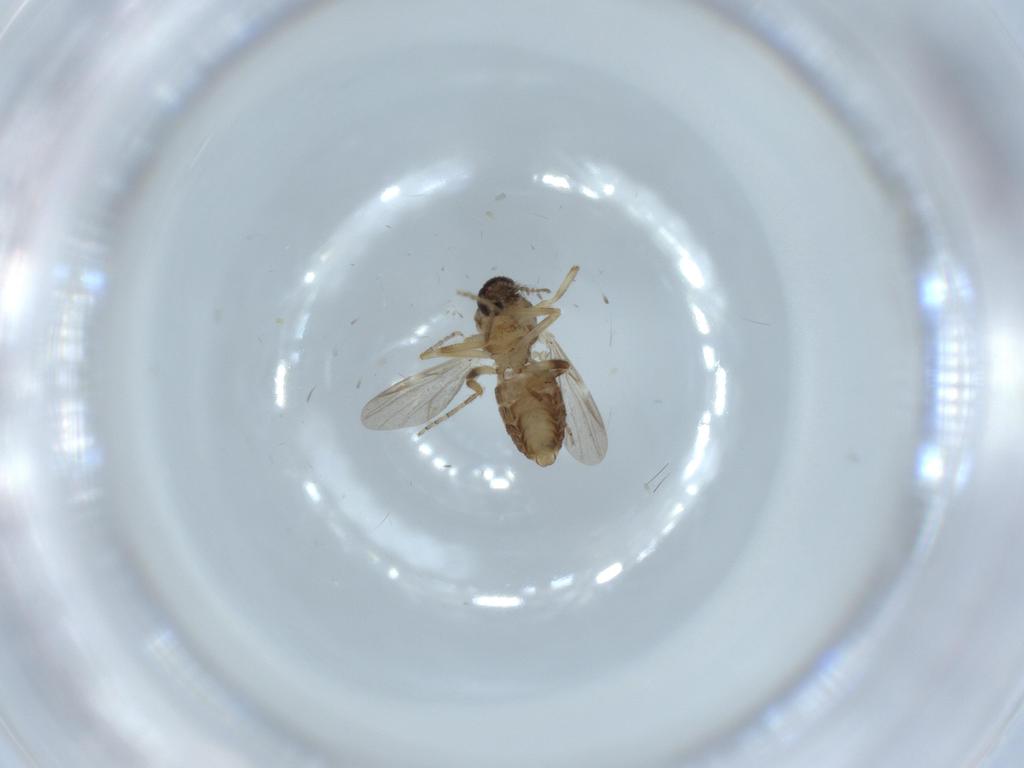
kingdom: Animalia
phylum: Arthropoda
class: Insecta
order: Diptera
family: Ceratopogonidae
